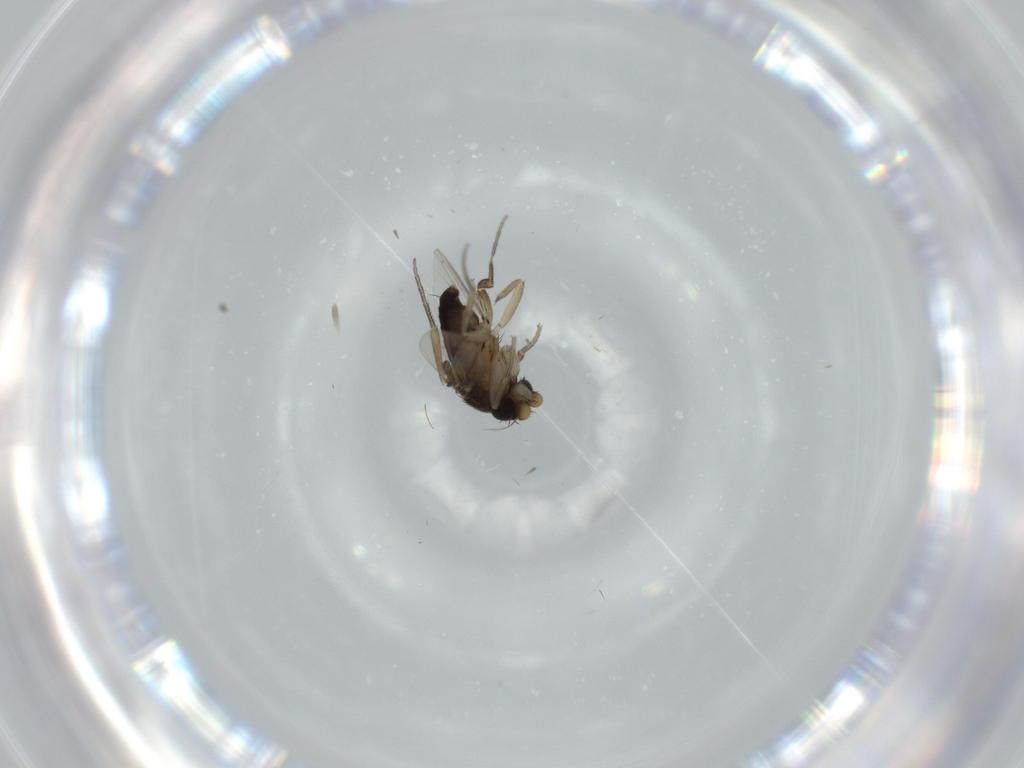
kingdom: Animalia
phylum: Arthropoda
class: Insecta
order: Diptera
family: Phoridae
